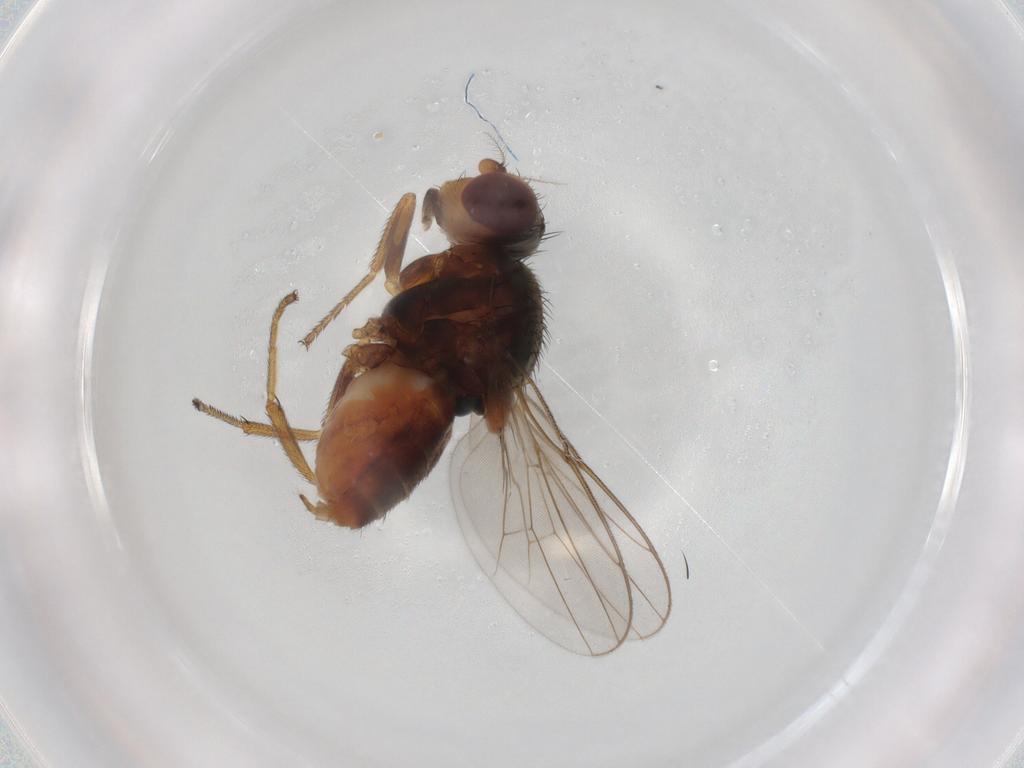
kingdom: Animalia
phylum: Arthropoda
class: Insecta
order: Diptera
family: Chloropidae
